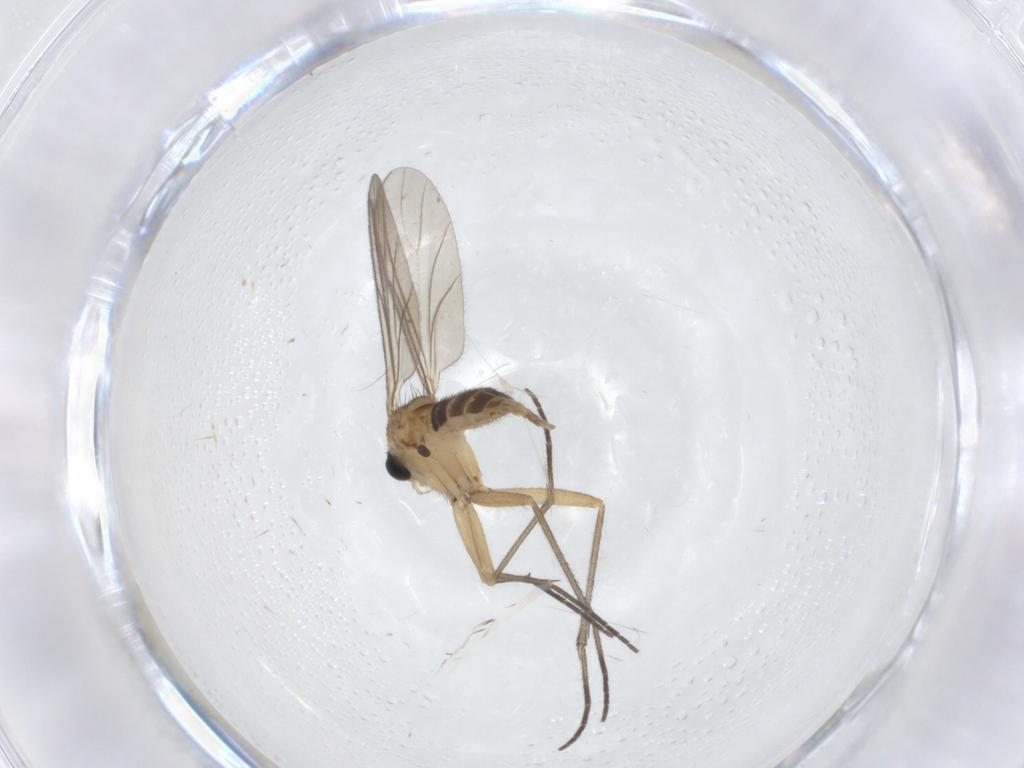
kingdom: Animalia
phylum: Arthropoda
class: Insecta
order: Diptera
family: Sciaridae
